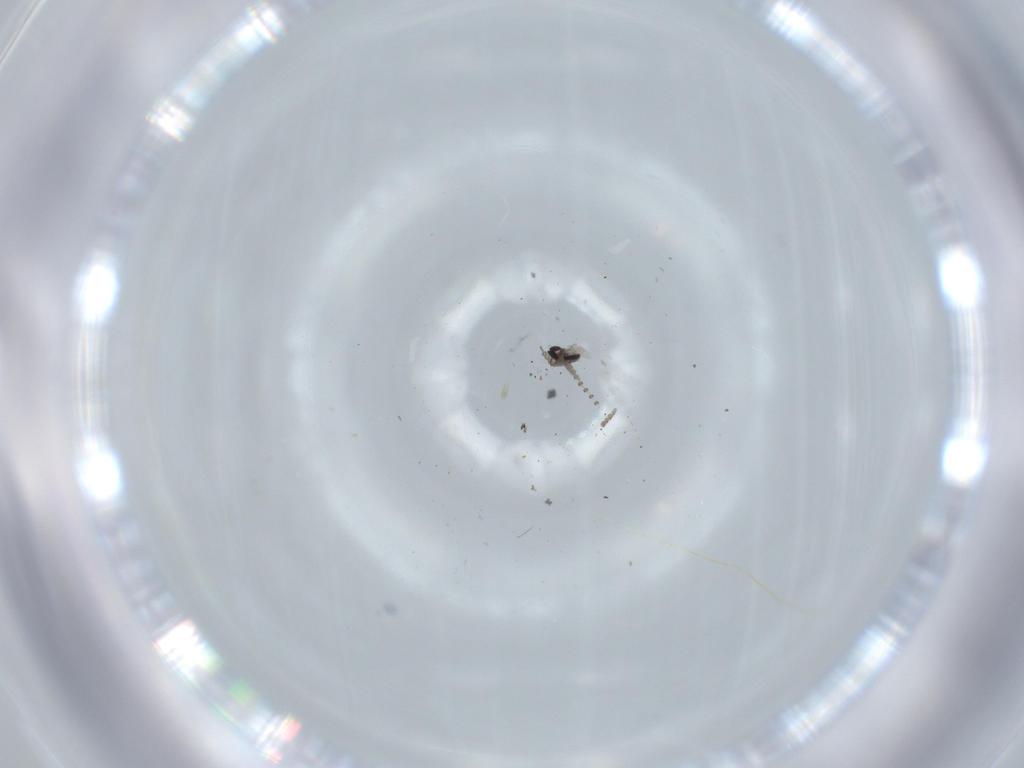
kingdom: Animalia
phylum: Arthropoda
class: Insecta
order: Diptera
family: Psychodidae
